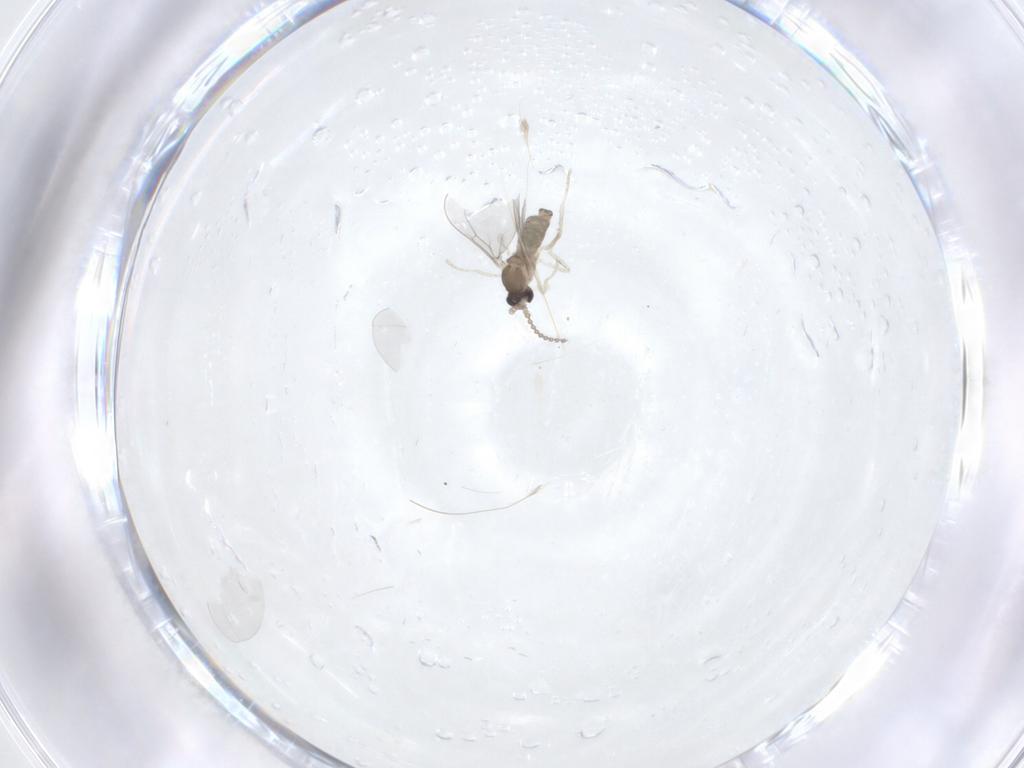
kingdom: Animalia
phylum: Arthropoda
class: Insecta
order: Diptera
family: Cecidomyiidae
